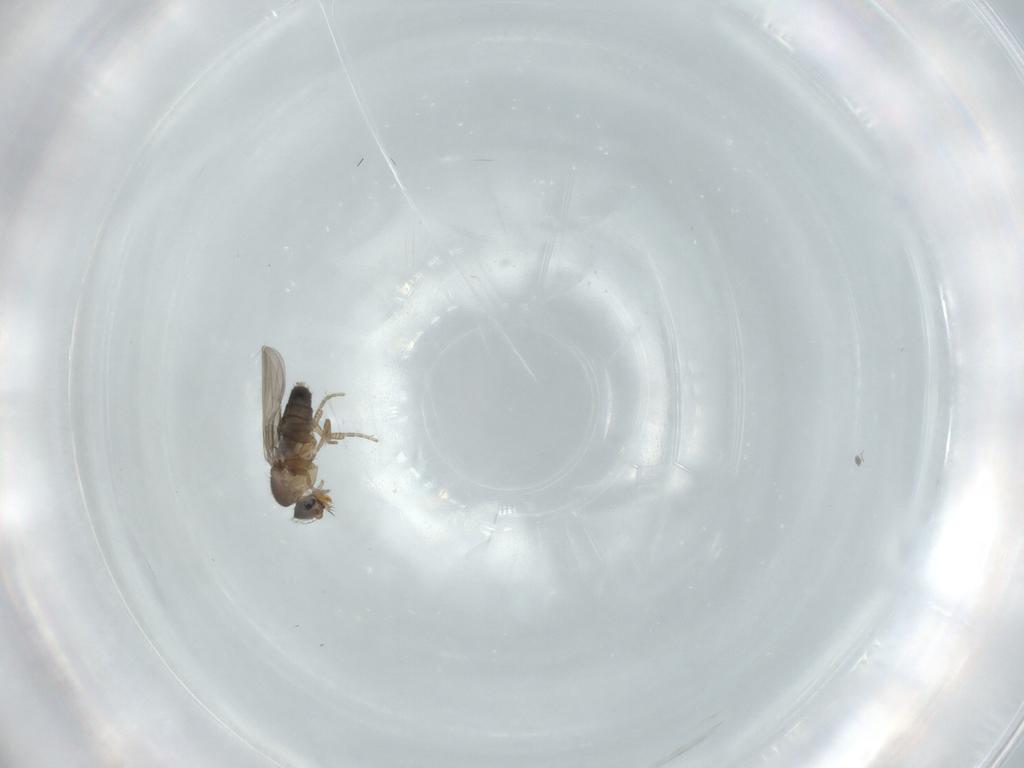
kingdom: Animalia
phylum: Arthropoda
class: Insecta
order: Diptera
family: Phoridae
